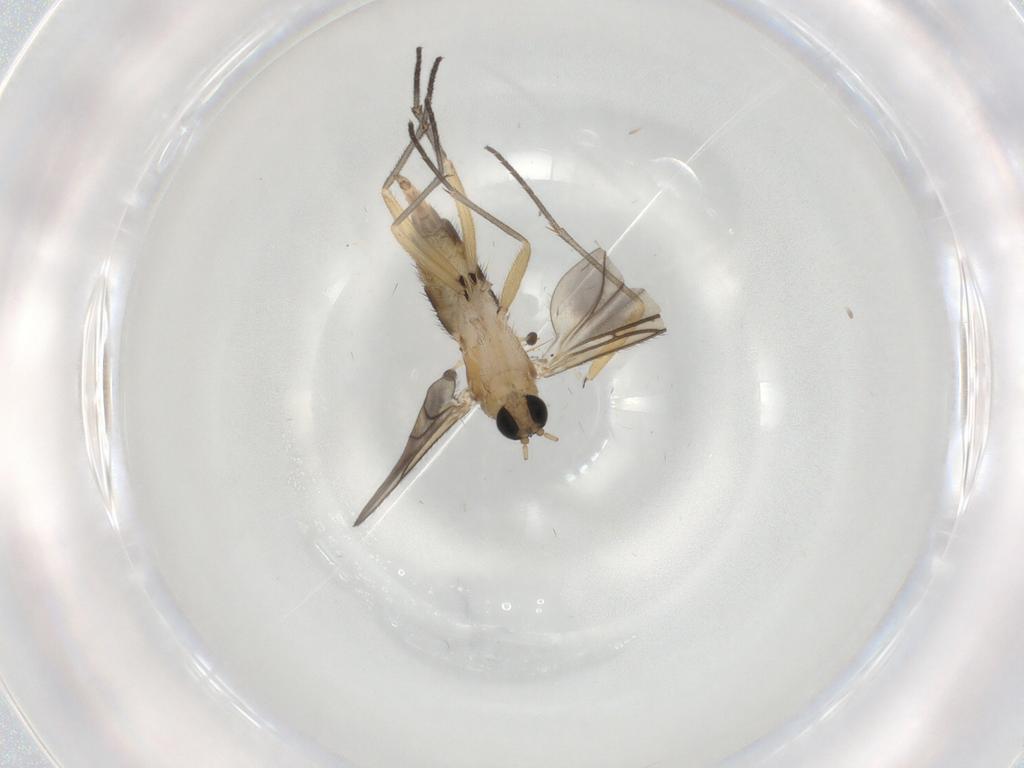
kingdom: Animalia
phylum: Arthropoda
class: Insecta
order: Diptera
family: Sciaridae
